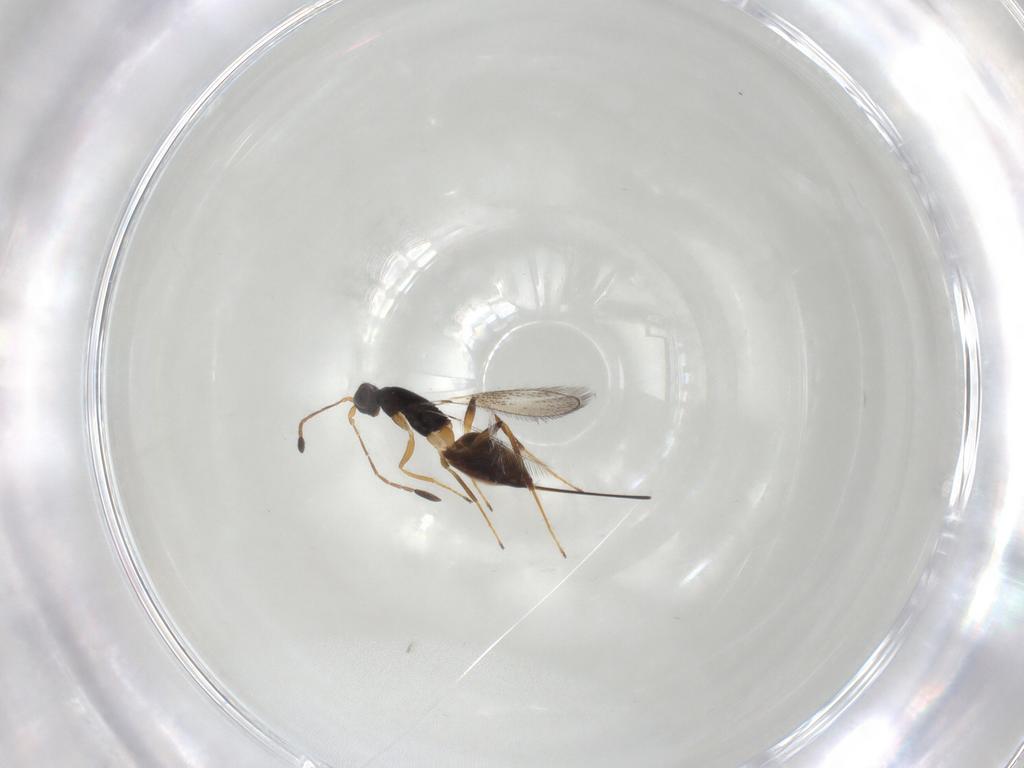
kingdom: Animalia
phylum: Arthropoda
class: Insecta
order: Hymenoptera
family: Mymaridae
